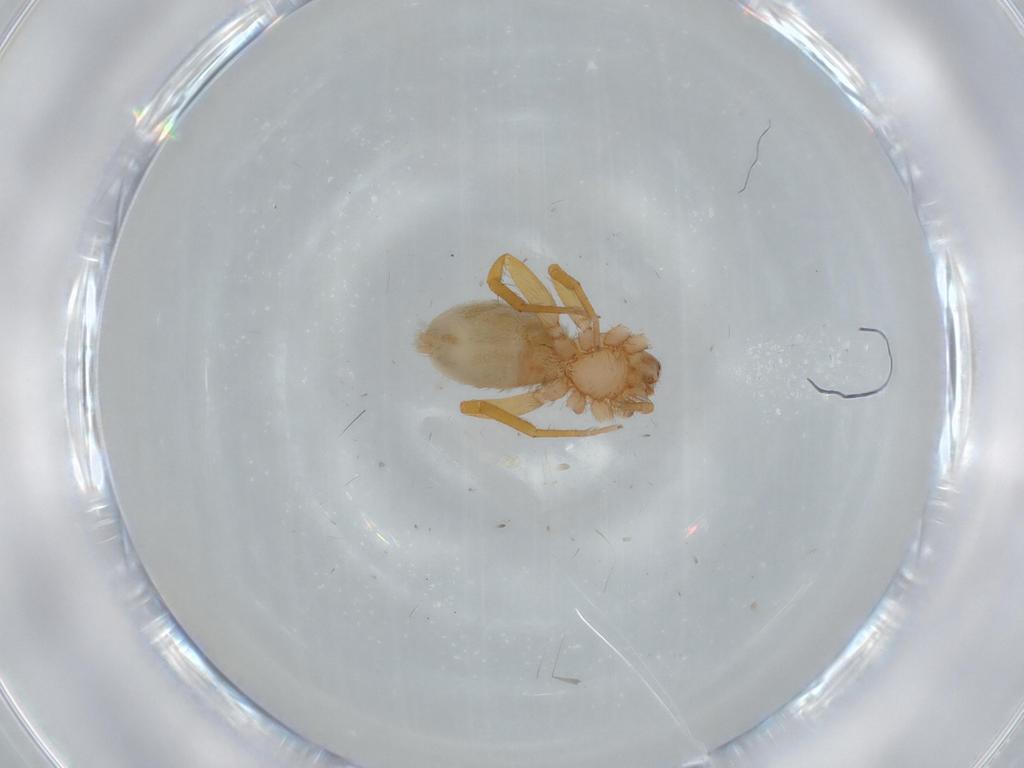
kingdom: Animalia
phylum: Arthropoda
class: Arachnida
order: Araneae
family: Oonopidae
